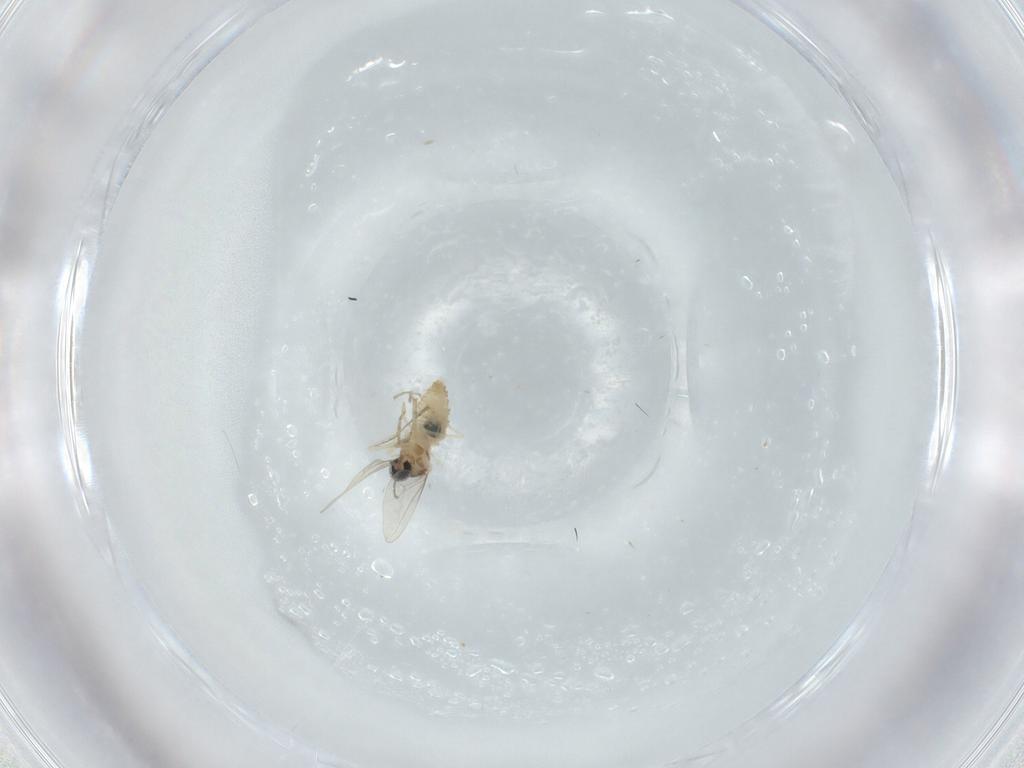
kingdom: Animalia
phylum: Arthropoda
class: Insecta
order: Diptera
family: Cecidomyiidae
